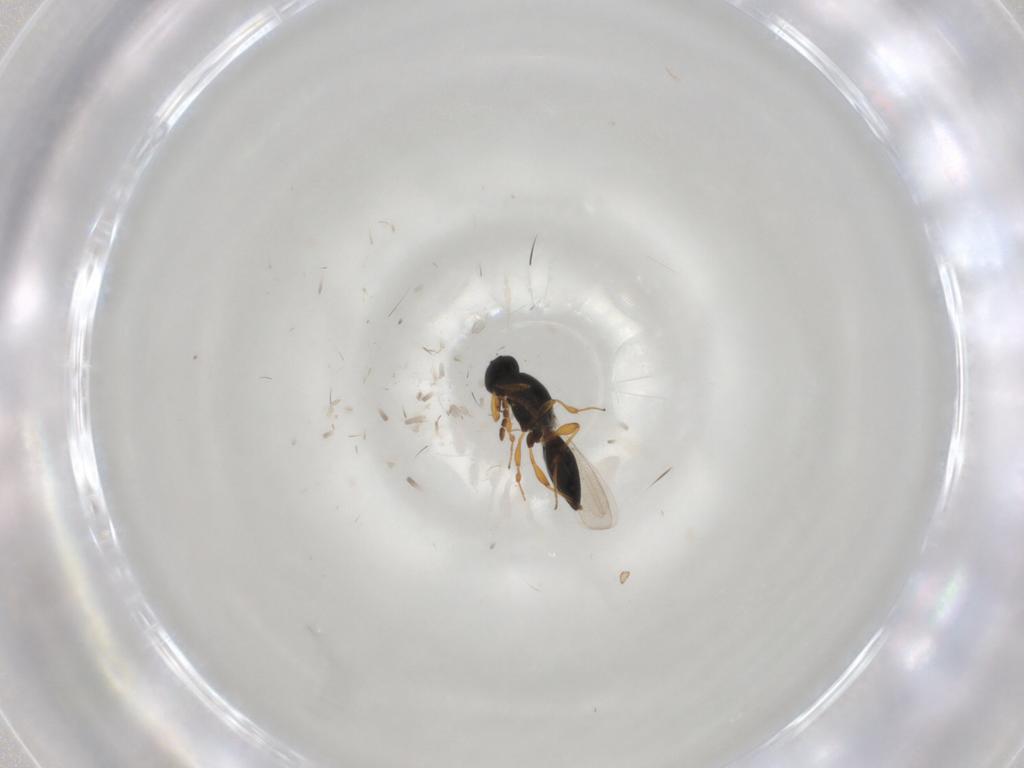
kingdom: Animalia
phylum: Arthropoda
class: Insecta
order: Hymenoptera
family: Platygastridae
